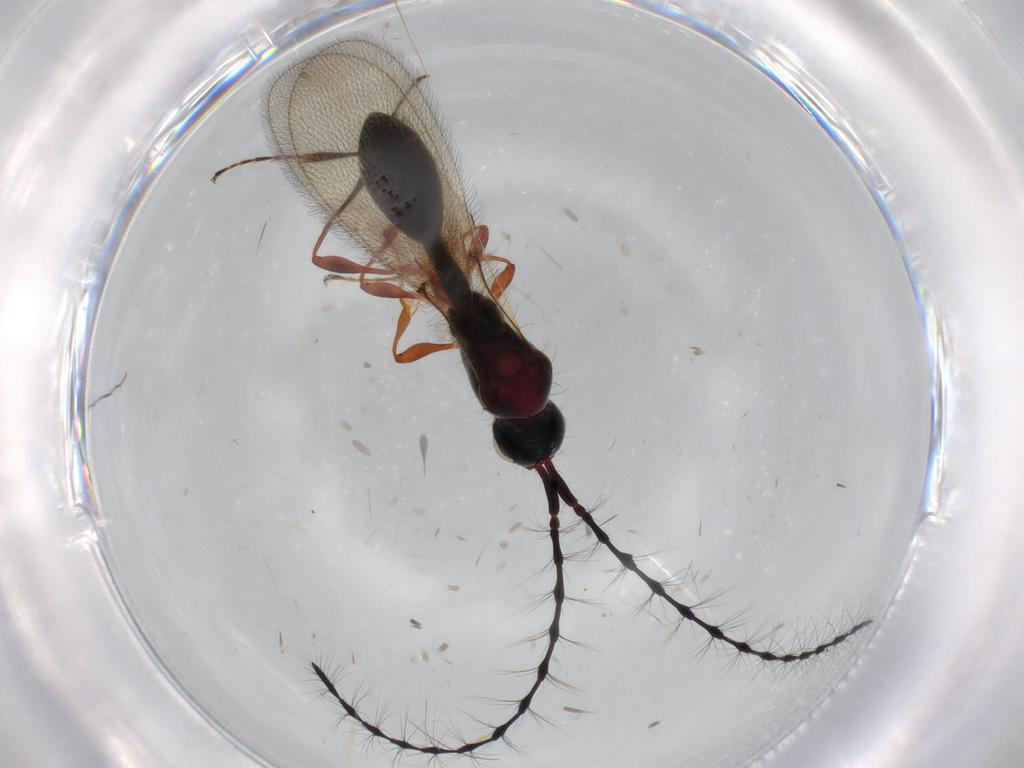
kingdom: Animalia
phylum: Arthropoda
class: Insecta
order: Hymenoptera
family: Diapriidae
